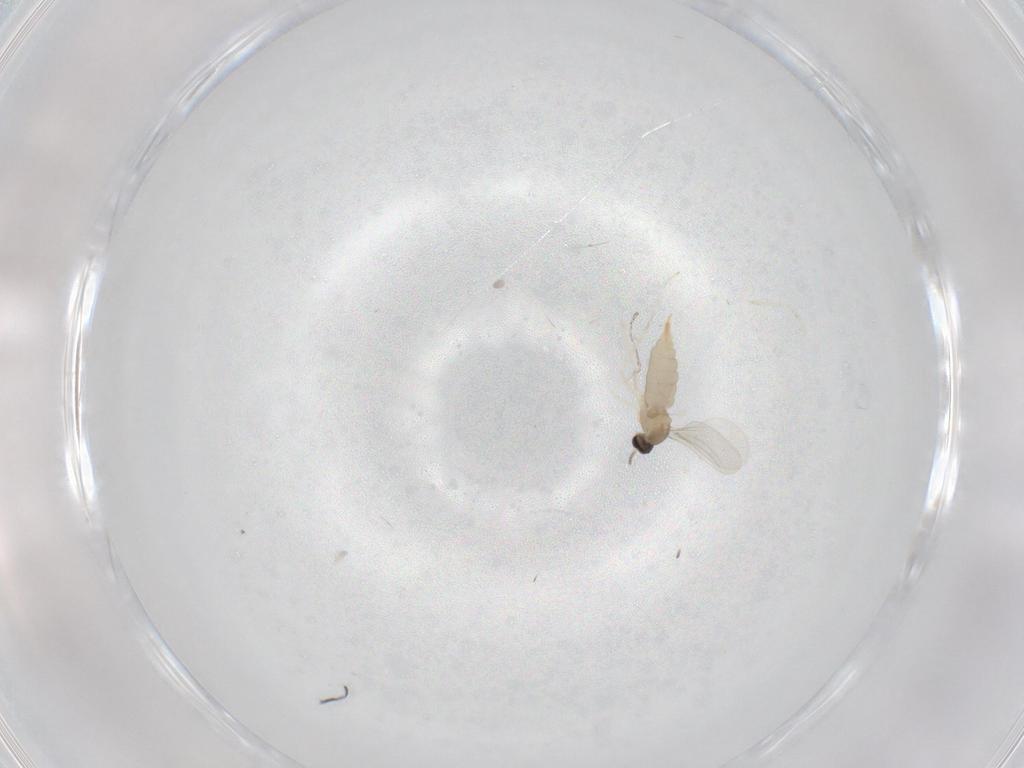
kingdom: Animalia
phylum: Arthropoda
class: Insecta
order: Diptera
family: Cecidomyiidae
